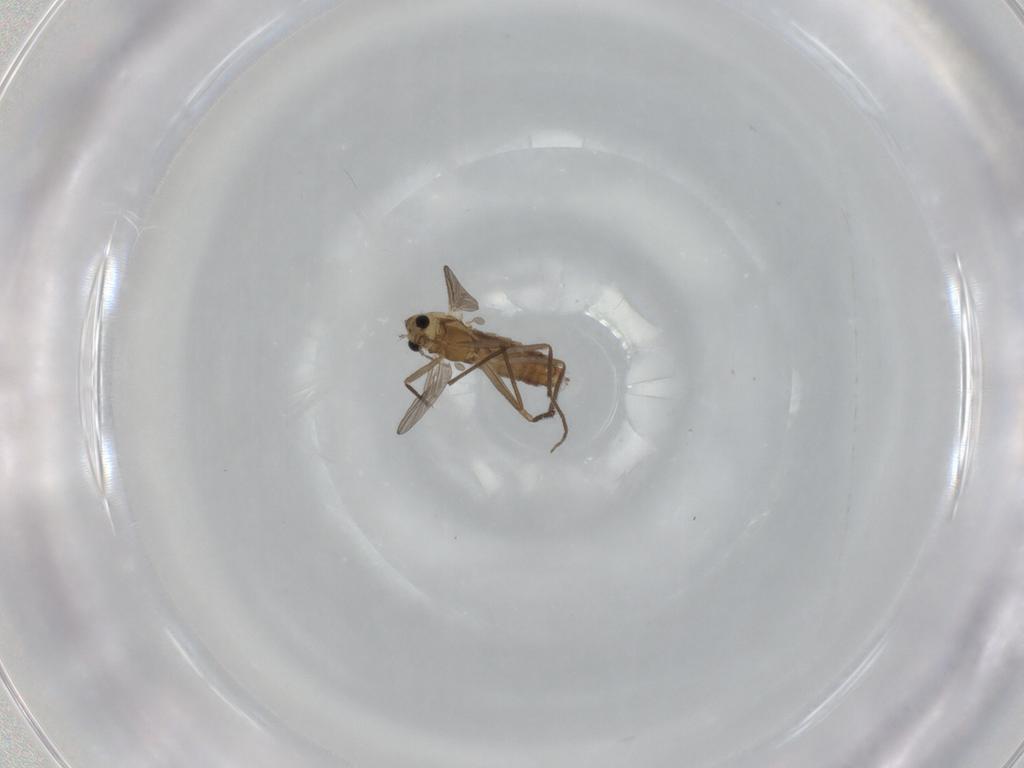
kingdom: Animalia
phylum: Arthropoda
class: Insecta
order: Diptera
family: Chironomidae
